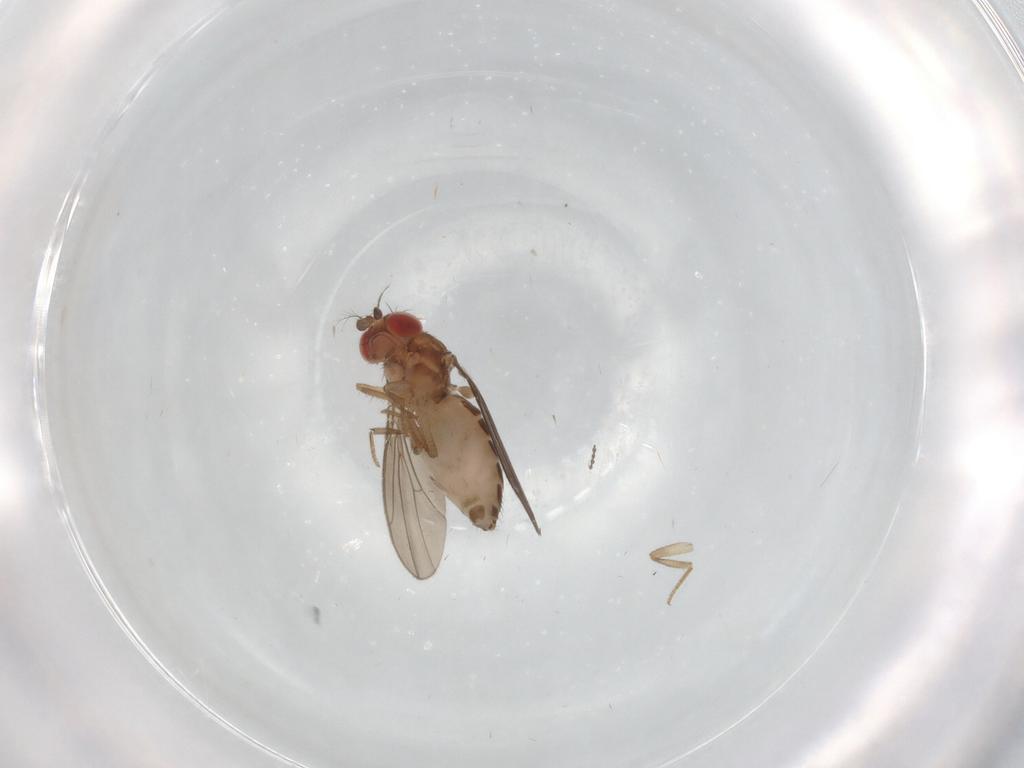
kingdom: Animalia
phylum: Arthropoda
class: Insecta
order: Diptera
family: Drosophilidae
